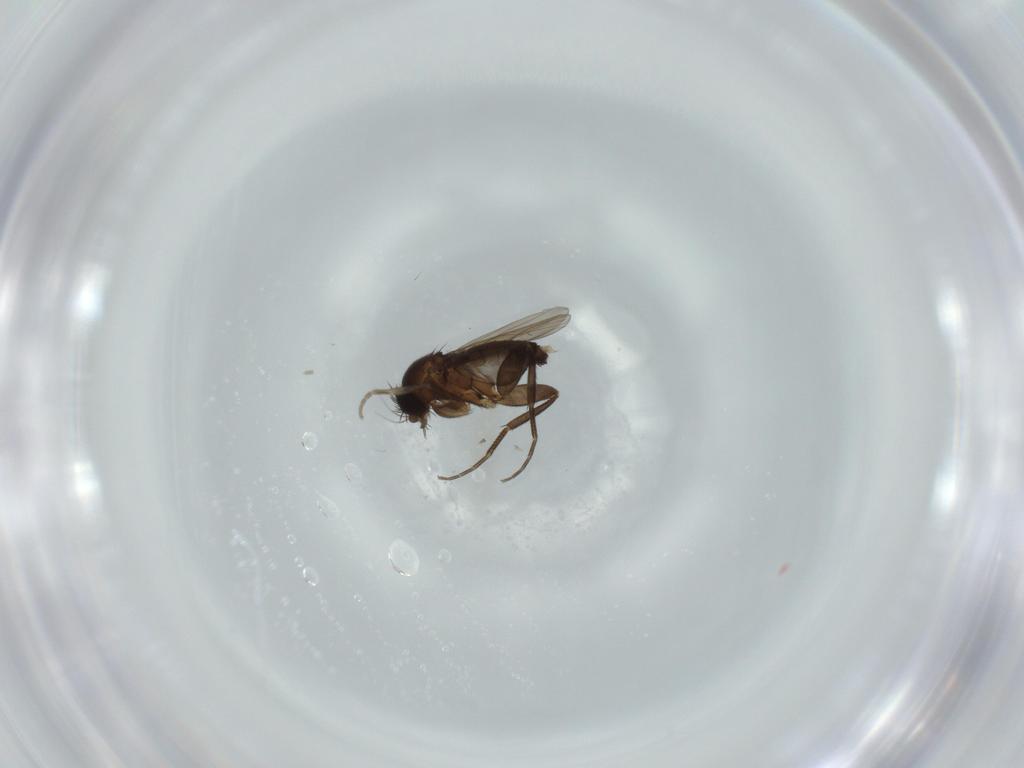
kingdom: Animalia
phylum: Arthropoda
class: Insecta
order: Diptera
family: Phoridae
